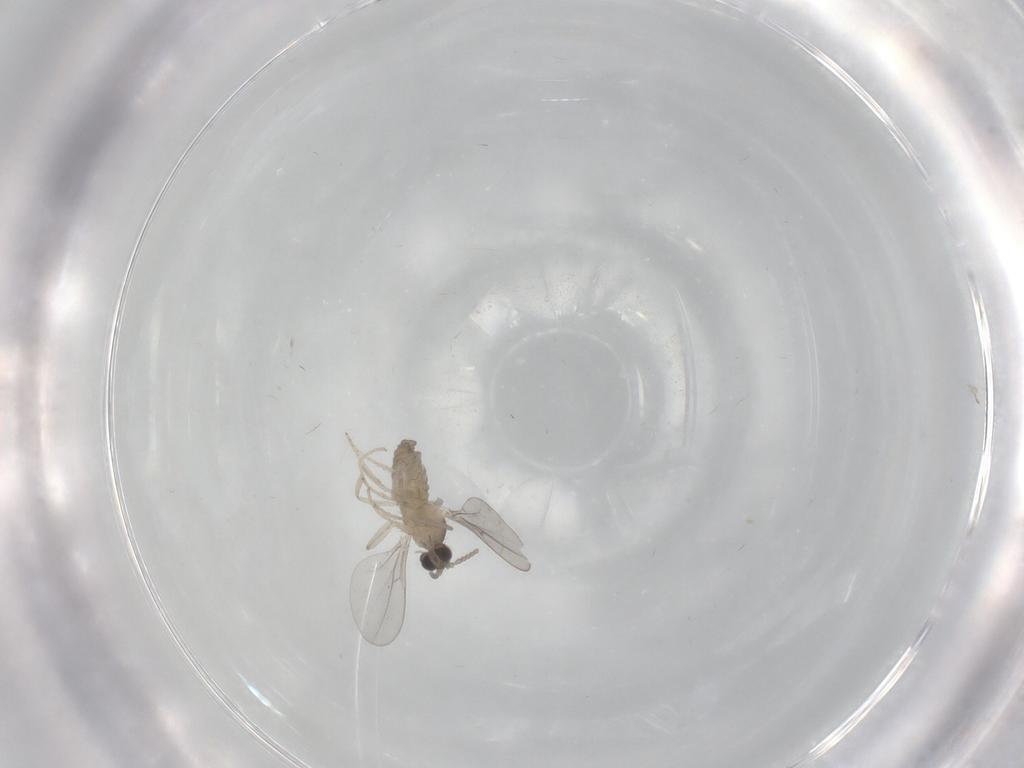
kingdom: Animalia
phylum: Arthropoda
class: Insecta
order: Diptera
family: Cecidomyiidae
